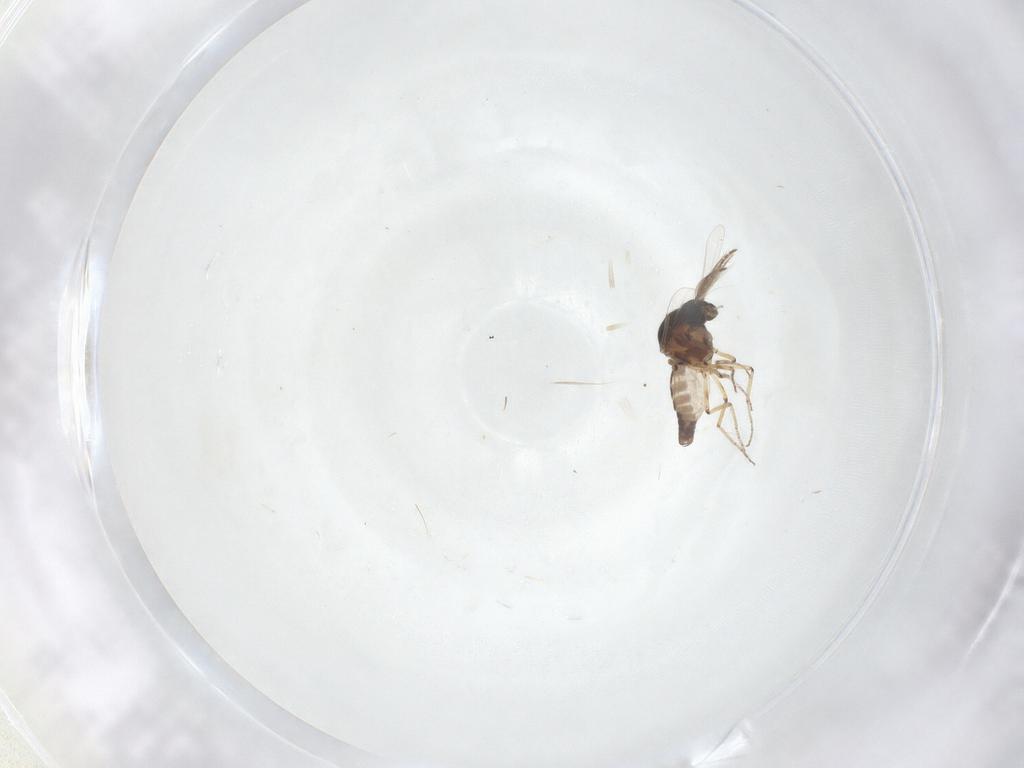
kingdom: Animalia
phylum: Arthropoda
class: Insecta
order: Diptera
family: Ceratopogonidae
